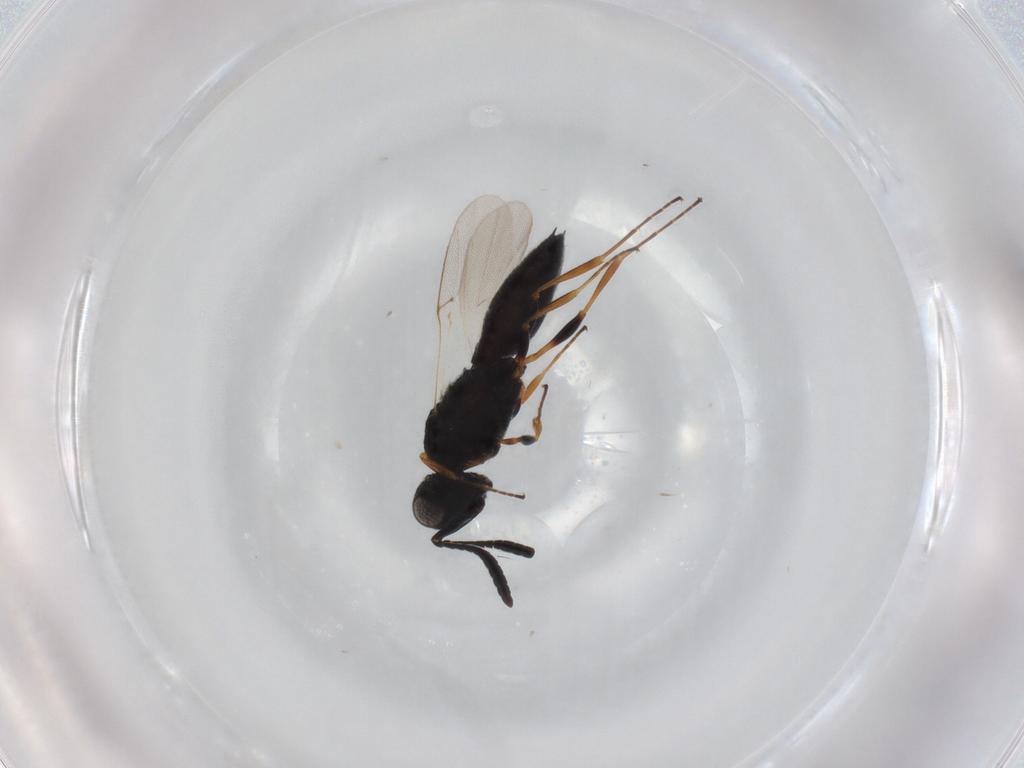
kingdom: Animalia
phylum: Arthropoda
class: Insecta
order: Hymenoptera
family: Scelionidae
